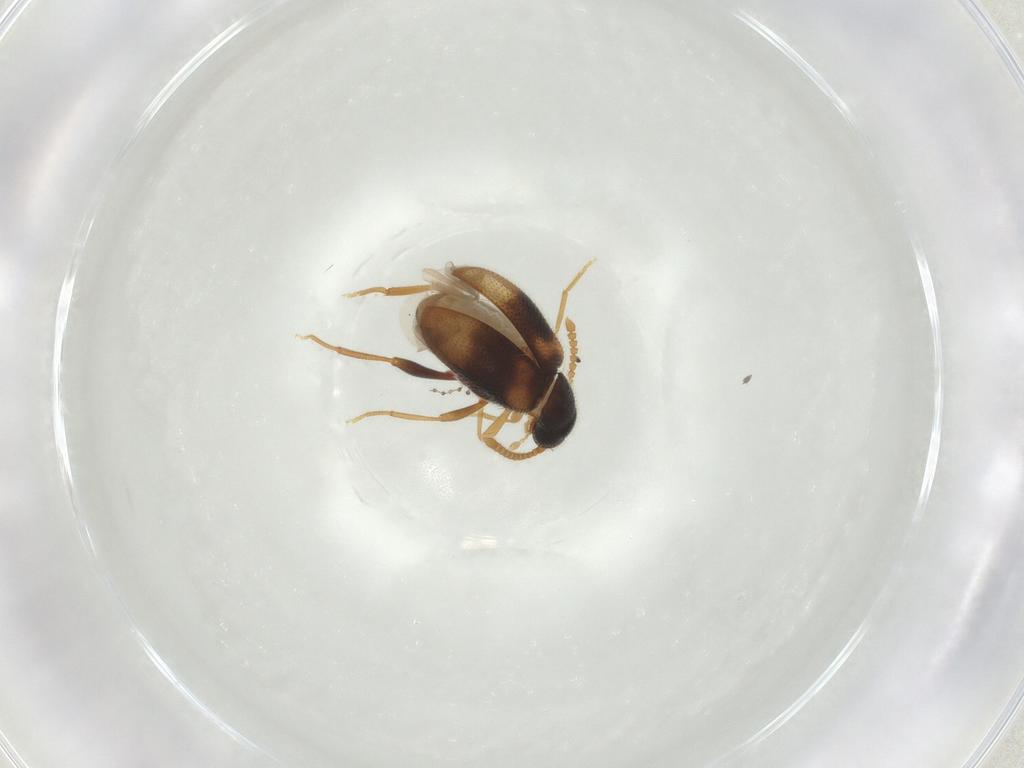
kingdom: Animalia
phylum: Arthropoda
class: Insecta
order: Coleoptera
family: Aderidae
